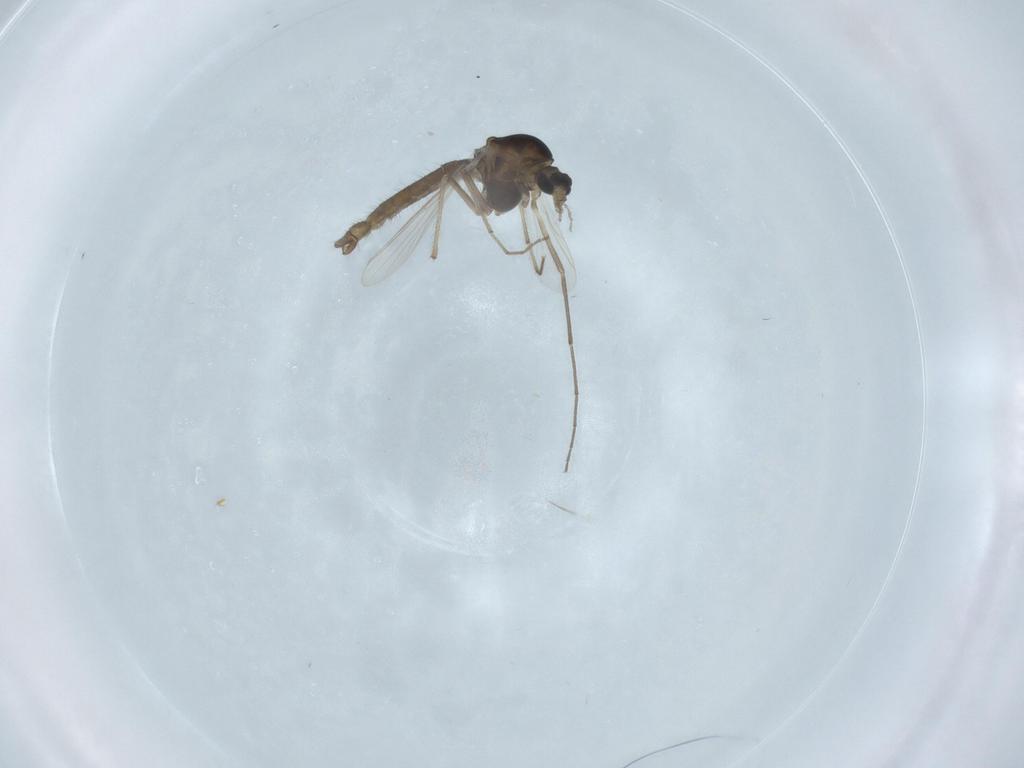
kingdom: Animalia
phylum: Arthropoda
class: Insecta
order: Diptera
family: Chironomidae
